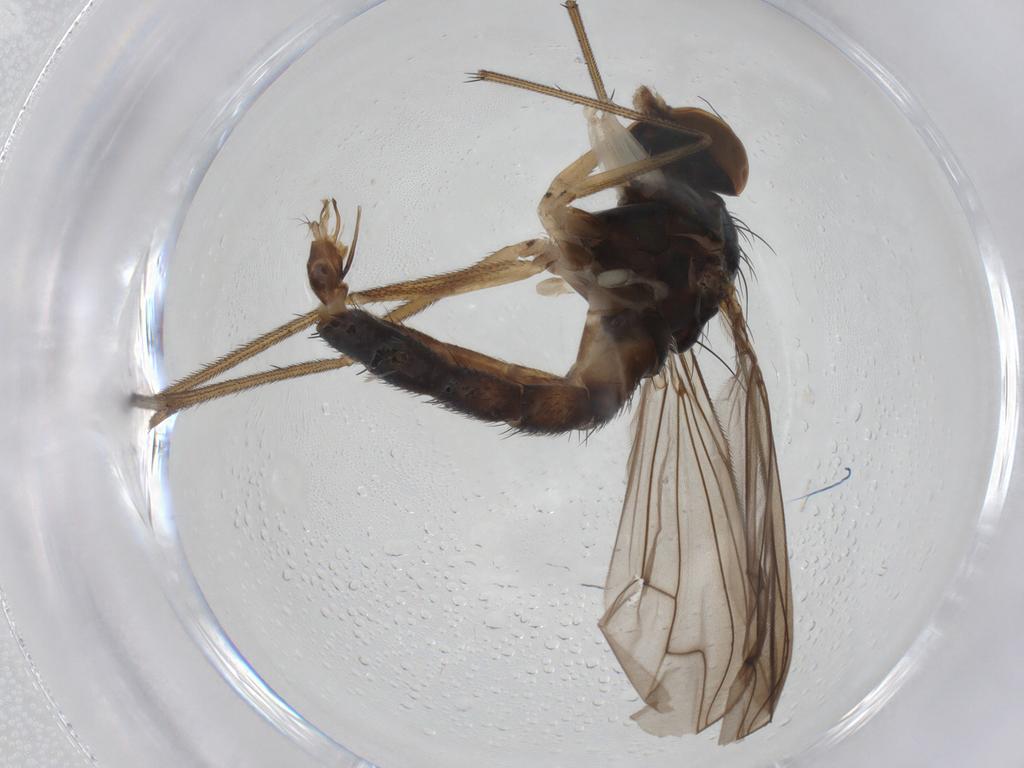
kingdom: Animalia
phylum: Arthropoda
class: Insecta
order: Diptera
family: Dolichopodidae
